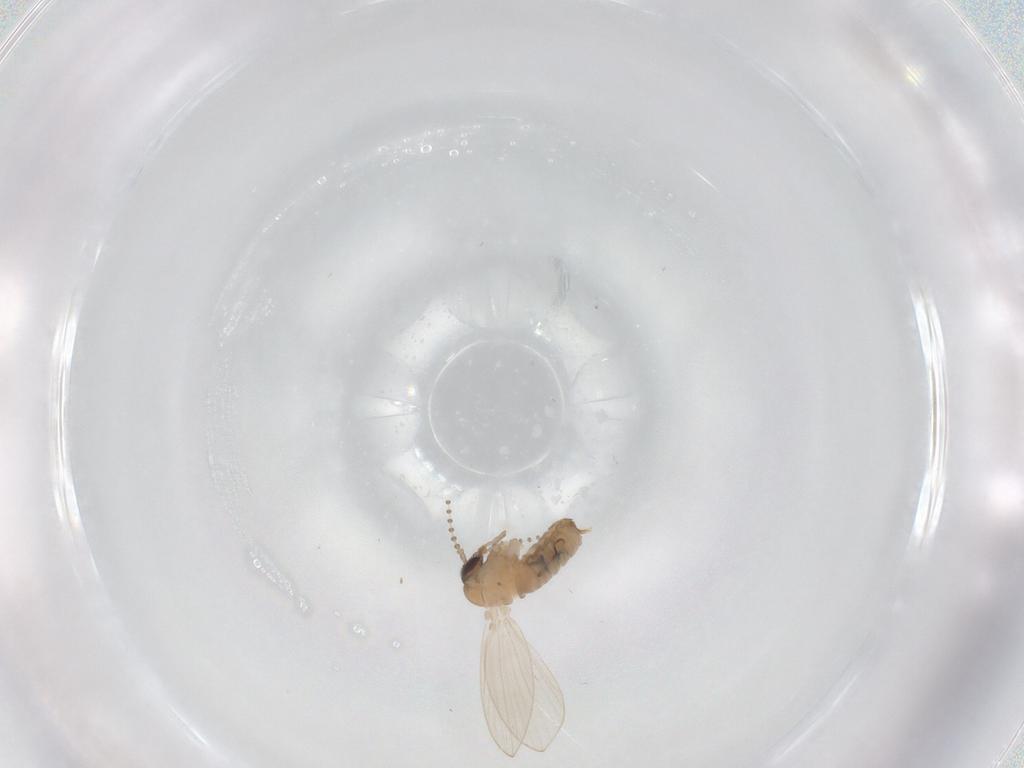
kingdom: Animalia
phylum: Arthropoda
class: Insecta
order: Diptera
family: Psychodidae
